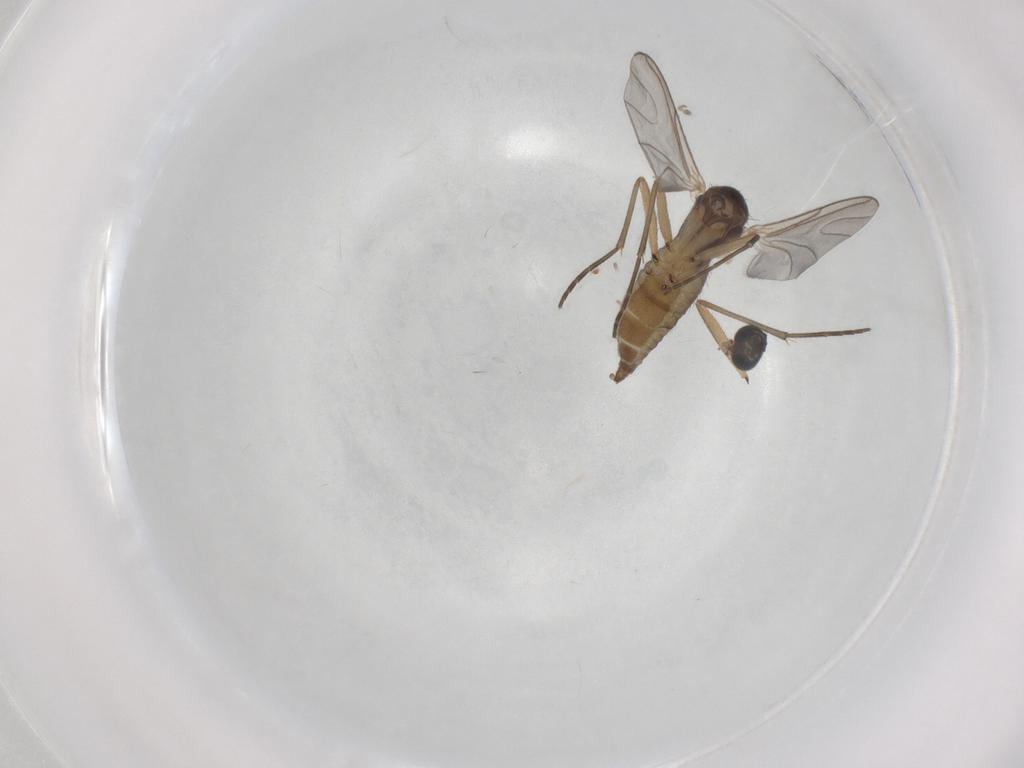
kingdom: Animalia
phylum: Arthropoda
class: Insecta
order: Diptera
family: Sciaridae
